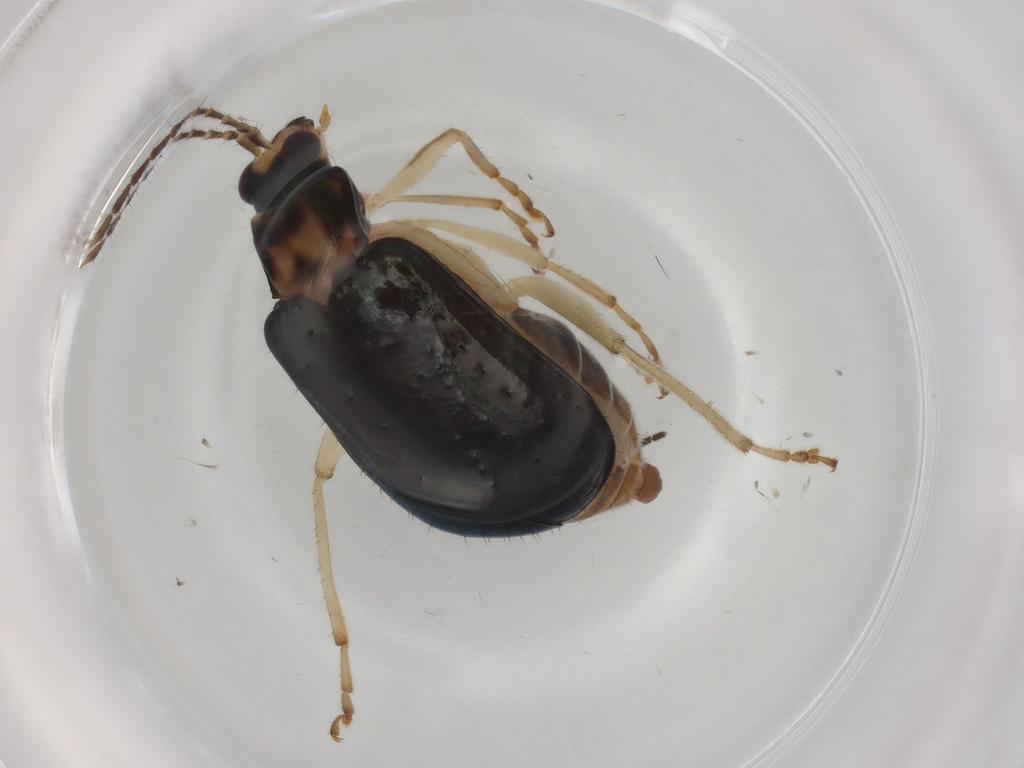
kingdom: Animalia
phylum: Arthropoda
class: Insecta
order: Coleoptera
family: Chrysomelidae
